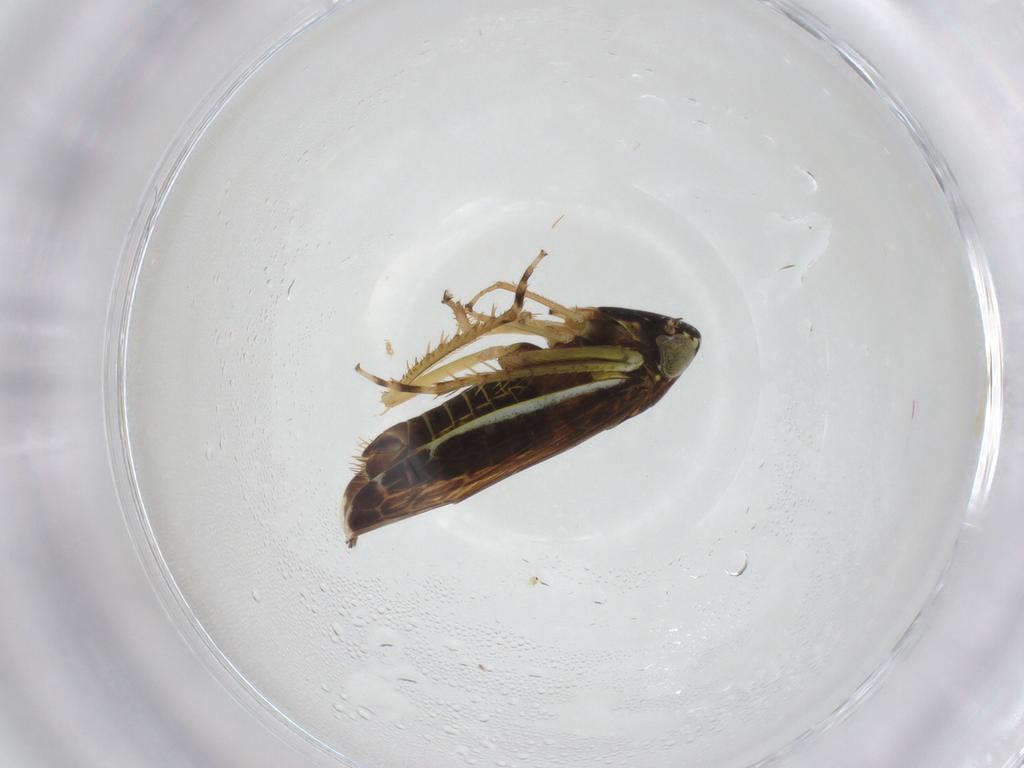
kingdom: Animalia
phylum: Arthropoda
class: Insecta
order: Hemiptera
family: Cicadellidae
